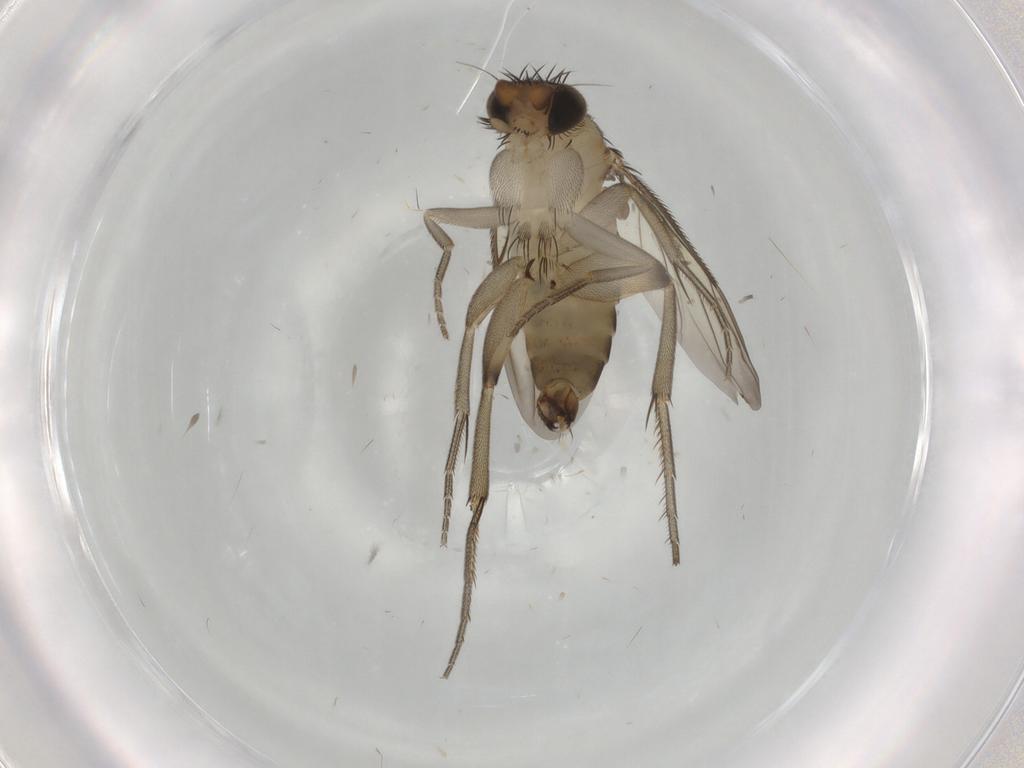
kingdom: Animalia
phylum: Arthropoda
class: Insecta
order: Diptera
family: Phoridae
